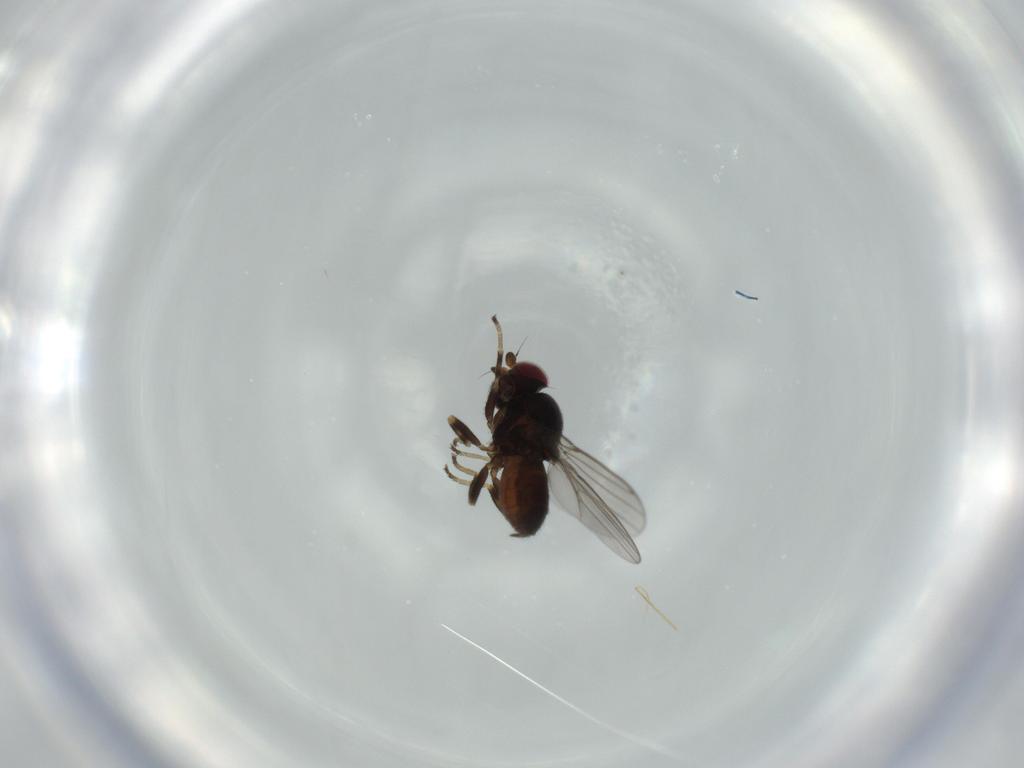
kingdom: Animalia
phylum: Arthropoda
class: Insecta
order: Diptera
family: Chloropidae
